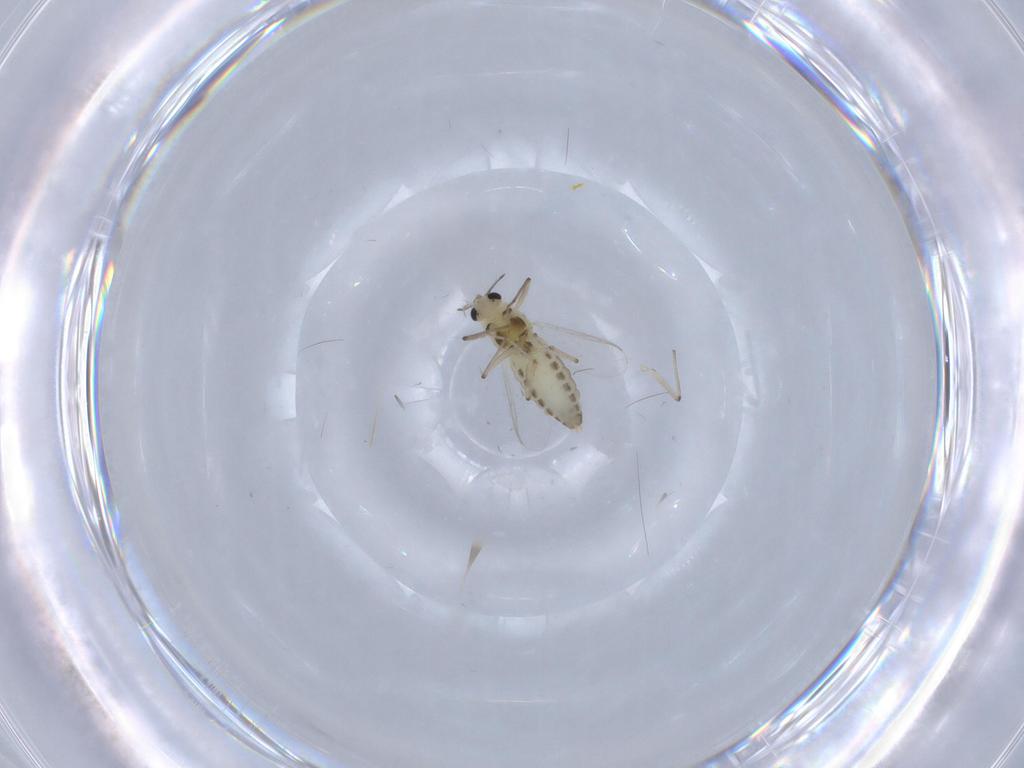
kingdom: Animalia
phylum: Arthropoda
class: Insecta
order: Diptera
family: Chironomidae
